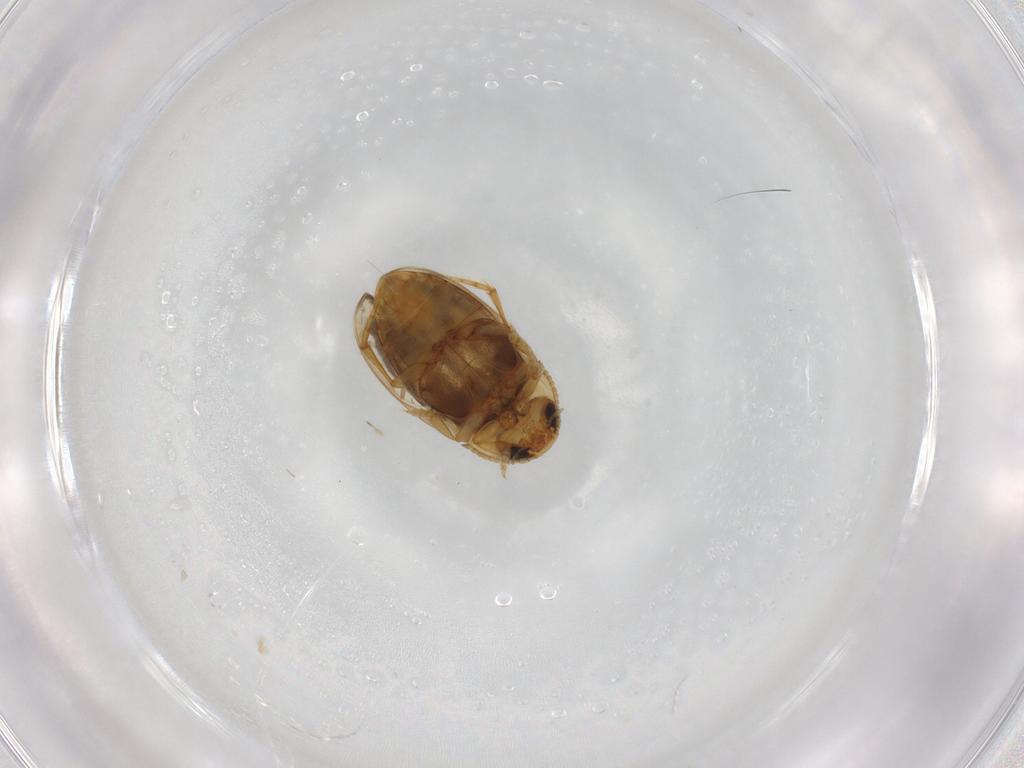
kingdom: Animalia
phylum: Arthropoda
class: Insecta
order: Coleoptera
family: Dytiscidae
